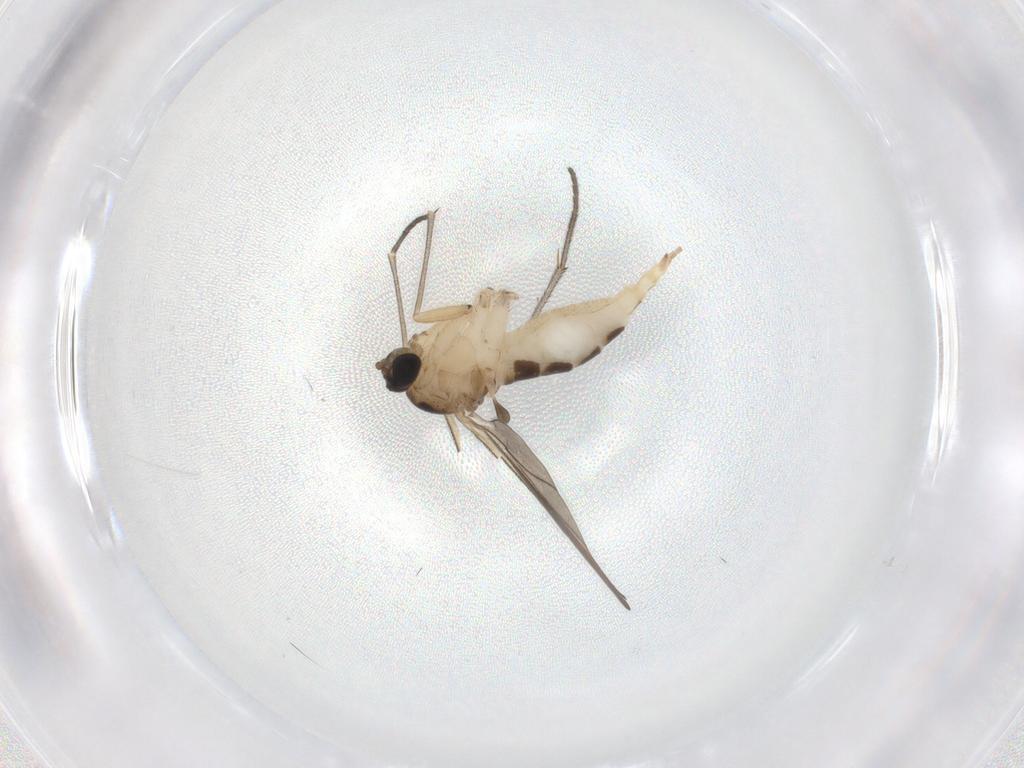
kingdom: Animalia
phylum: Arthropoda
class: Insecta
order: Diptera
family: Sciaridae
